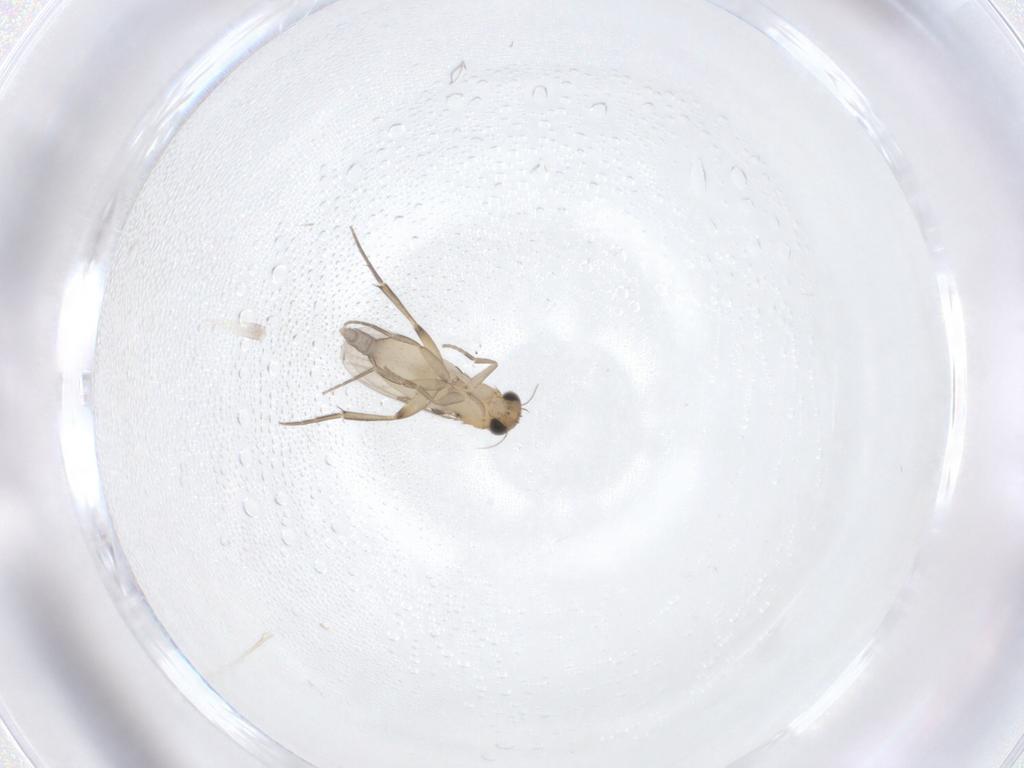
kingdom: Animalia
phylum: Arthropoda
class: Insecta
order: Diptera
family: Phoridae
